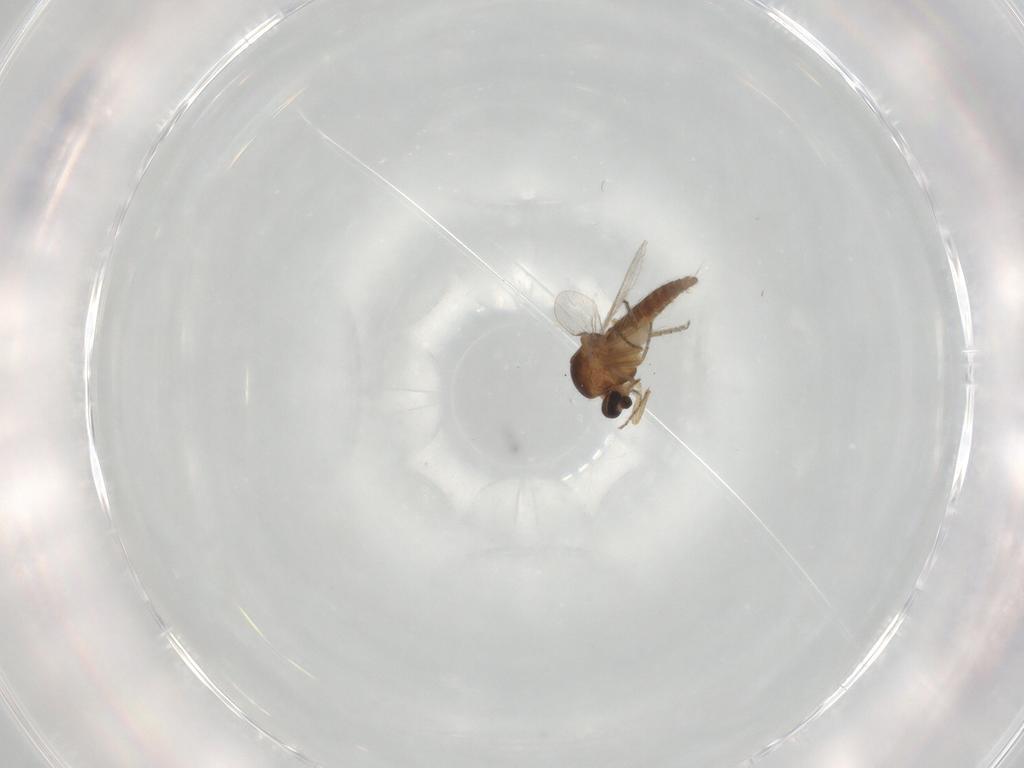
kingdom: Animalia
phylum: Arthropoda
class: Insecta
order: Diptera
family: Ceratopogonidae
